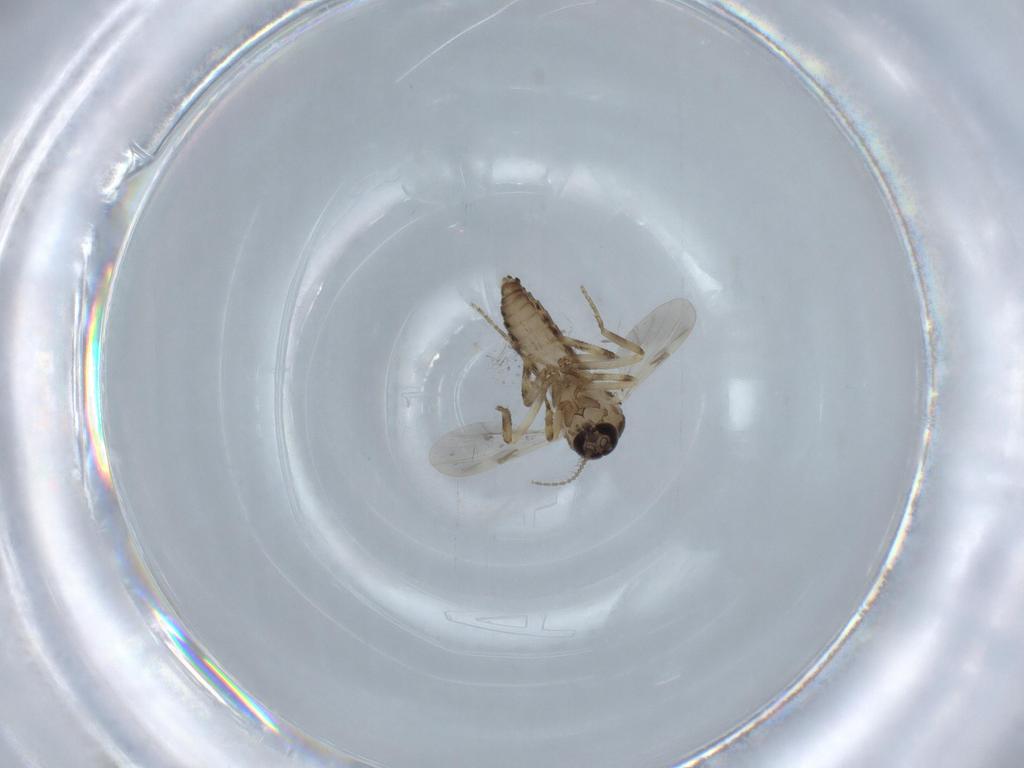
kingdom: Animalia
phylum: Arthropoda
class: Insecta
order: Diptera
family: Ceratopogonidae
